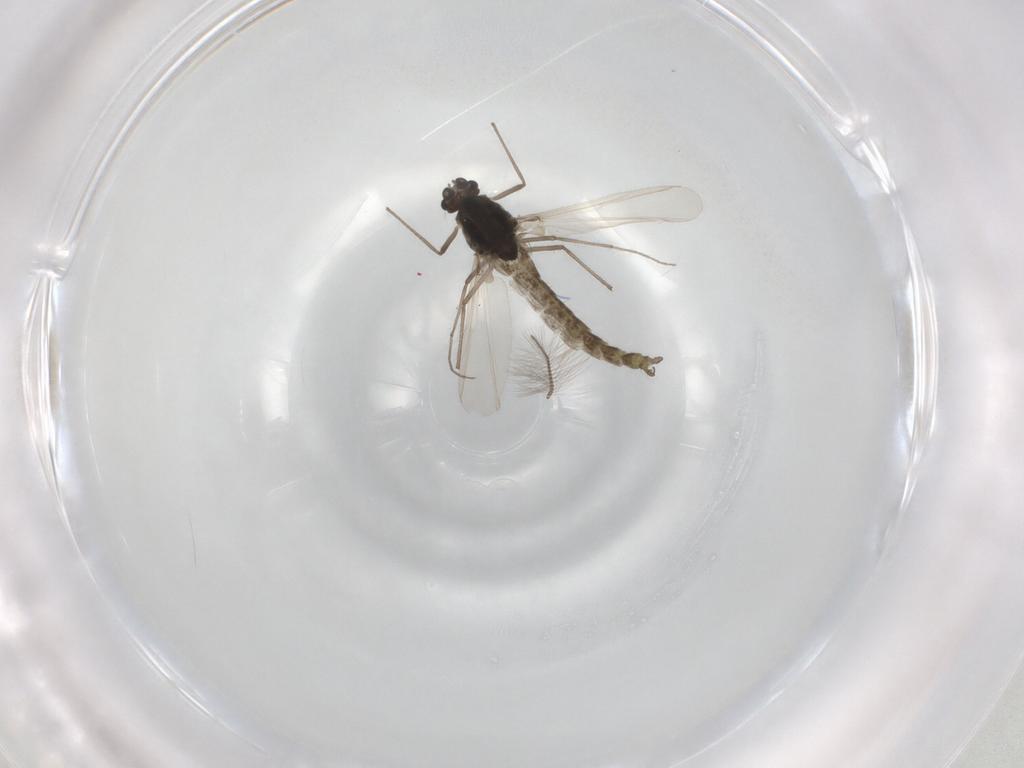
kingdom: Animalia
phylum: Arthropoda
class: Insecta
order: Diptera
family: Chironomidae
